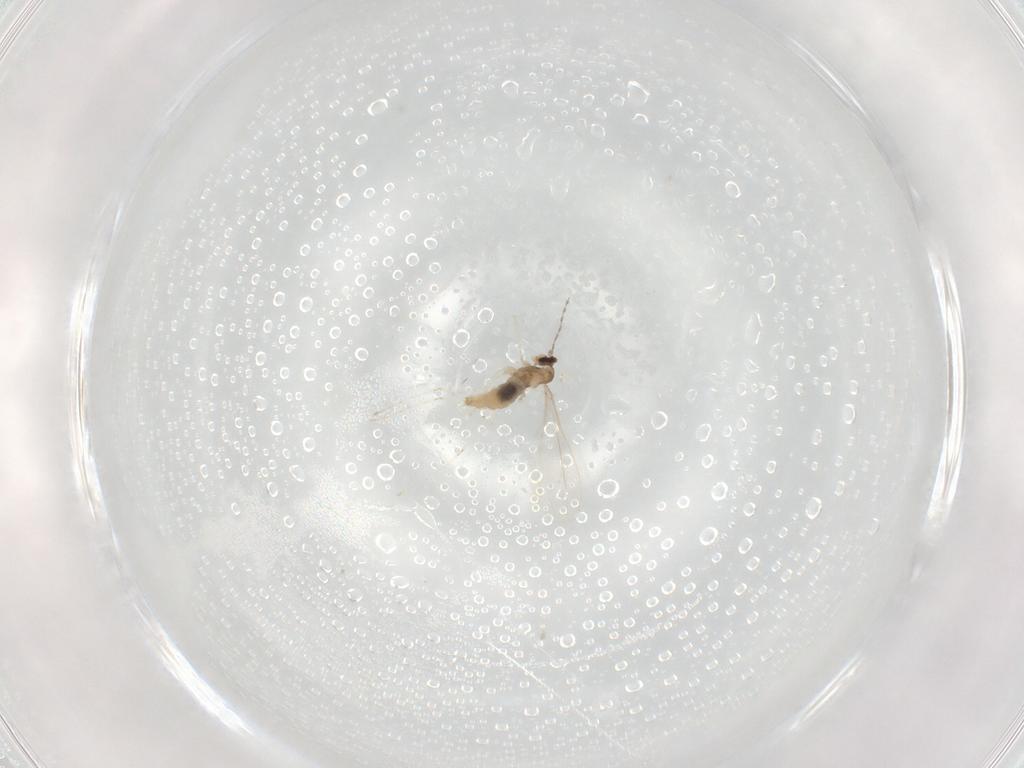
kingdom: Animalia
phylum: Arthropoda
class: Insecta
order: Diptera
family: Cecidomyiidae
